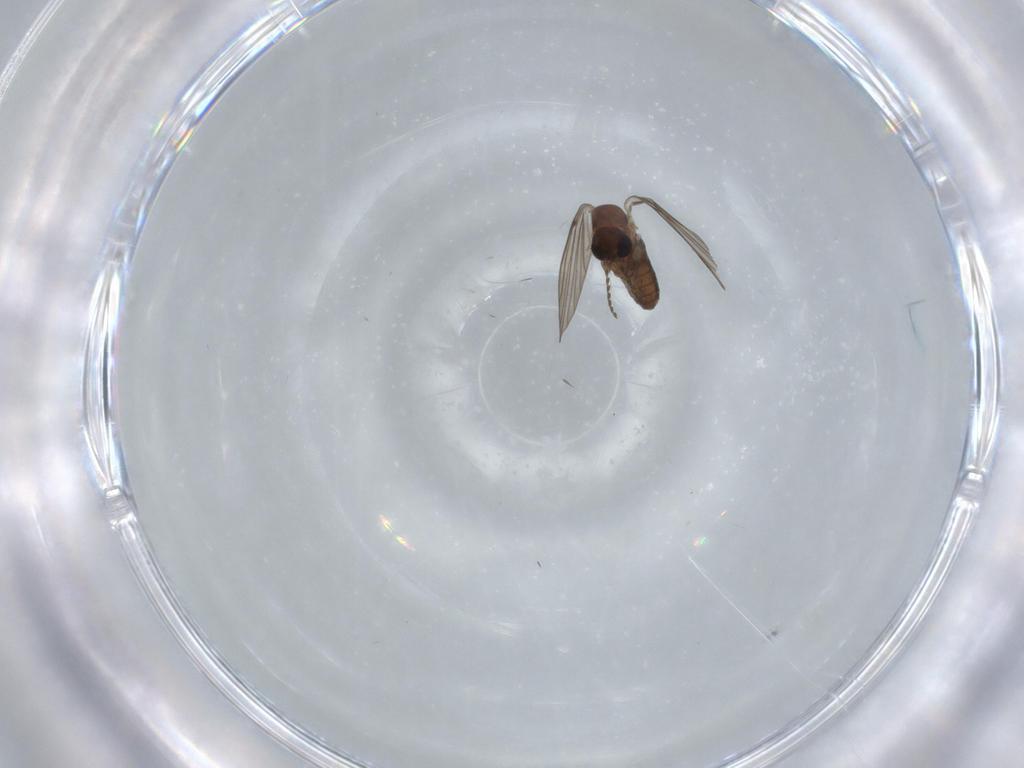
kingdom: Animalia
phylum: Arthropoda
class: Insecta
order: Diptera
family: Psychodidae
